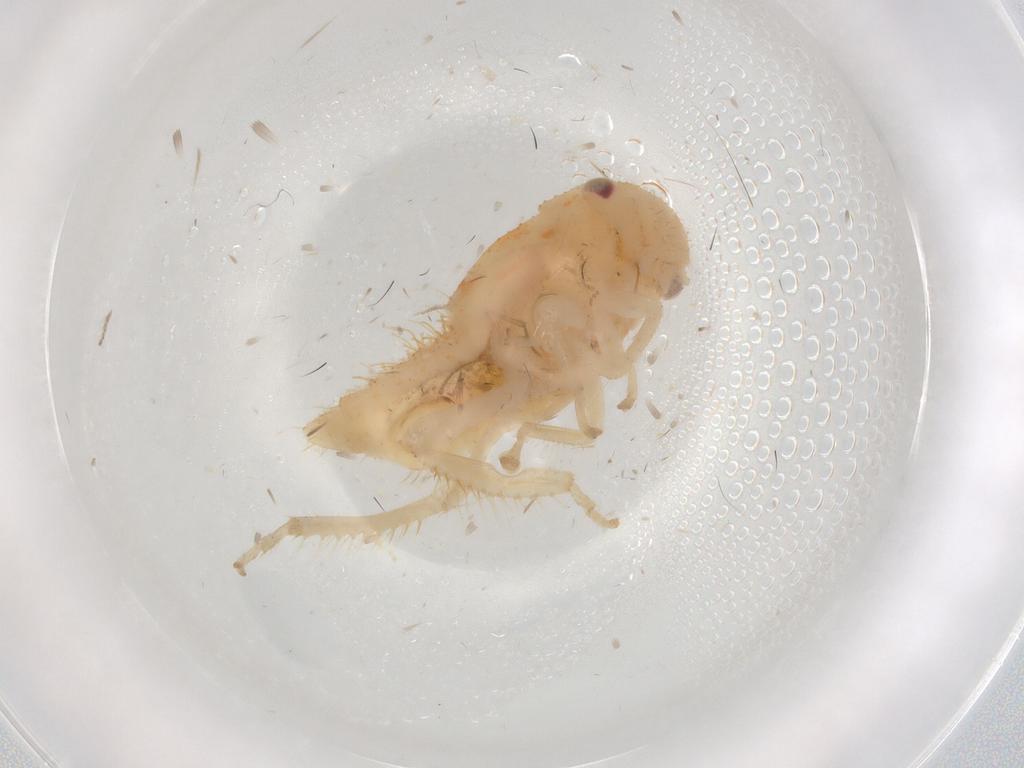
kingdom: Animalia
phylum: Arthropoda
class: Insecta
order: Hemiptera
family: Cicadellidae
